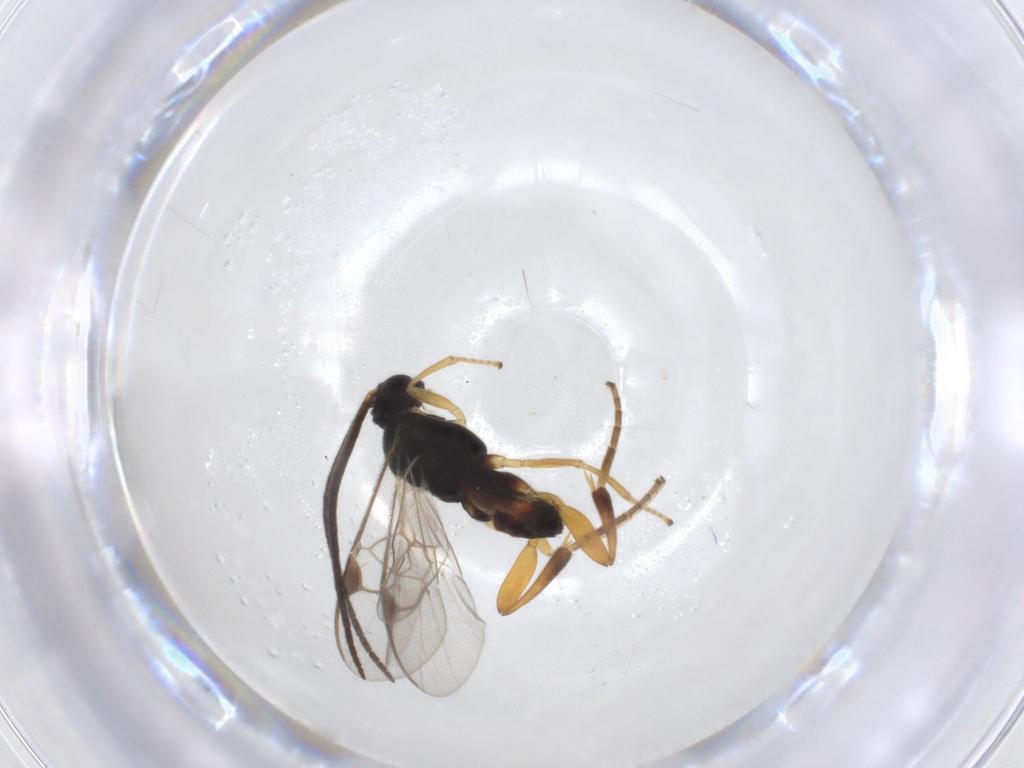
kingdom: Animalia
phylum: Arthropoda
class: Insecta
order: Hymenoptera
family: Braconidae
